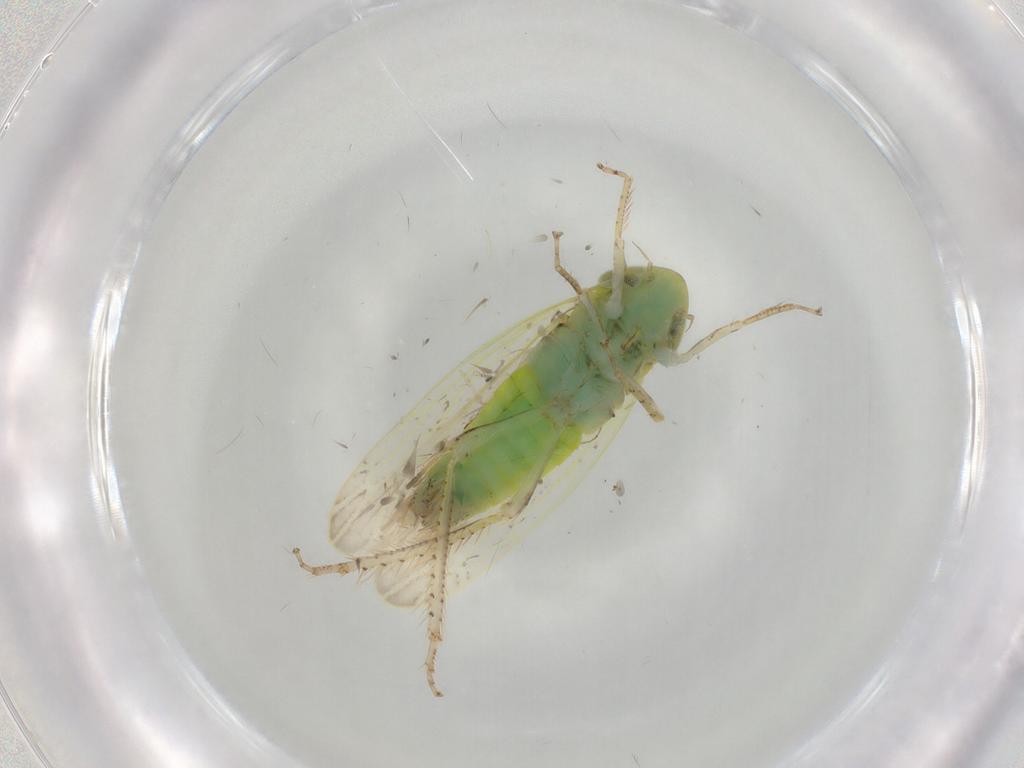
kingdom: Animalia
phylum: Arthropoda
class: Insecta
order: Hemiptera
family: Cicadellidae
